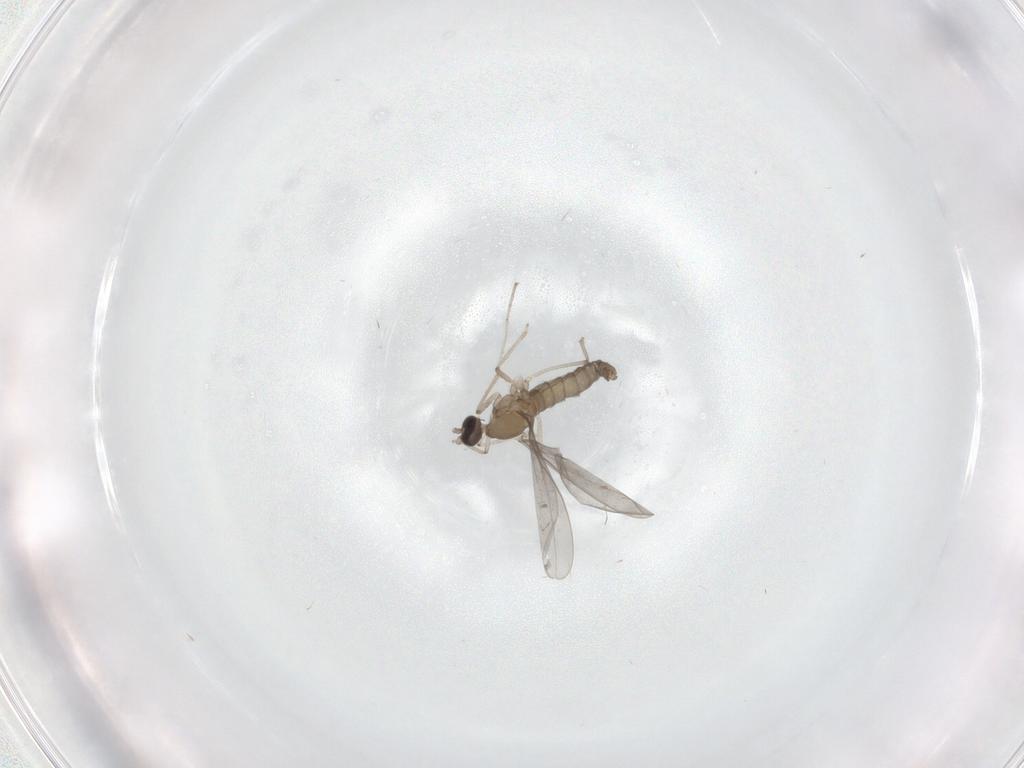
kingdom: Animalia
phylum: Arthropoda
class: Insecta
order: Diptera
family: Cecidomyiidae
